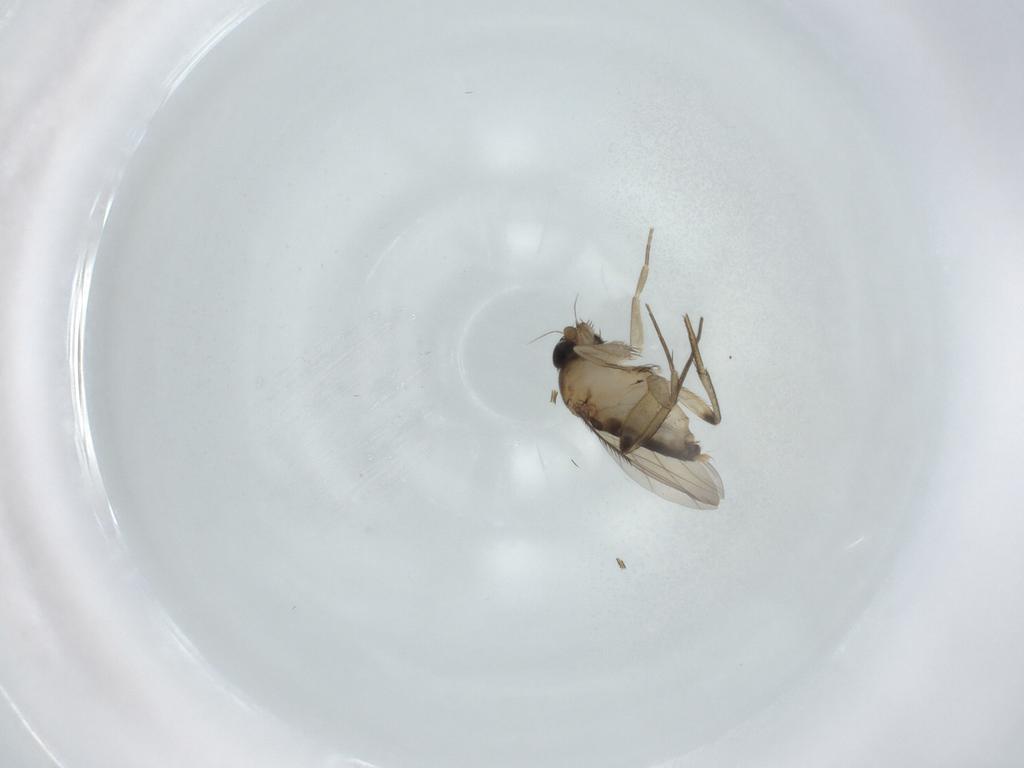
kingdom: Animalia
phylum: Arthropoda
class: Insecta
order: Diptera
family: Phoridae
